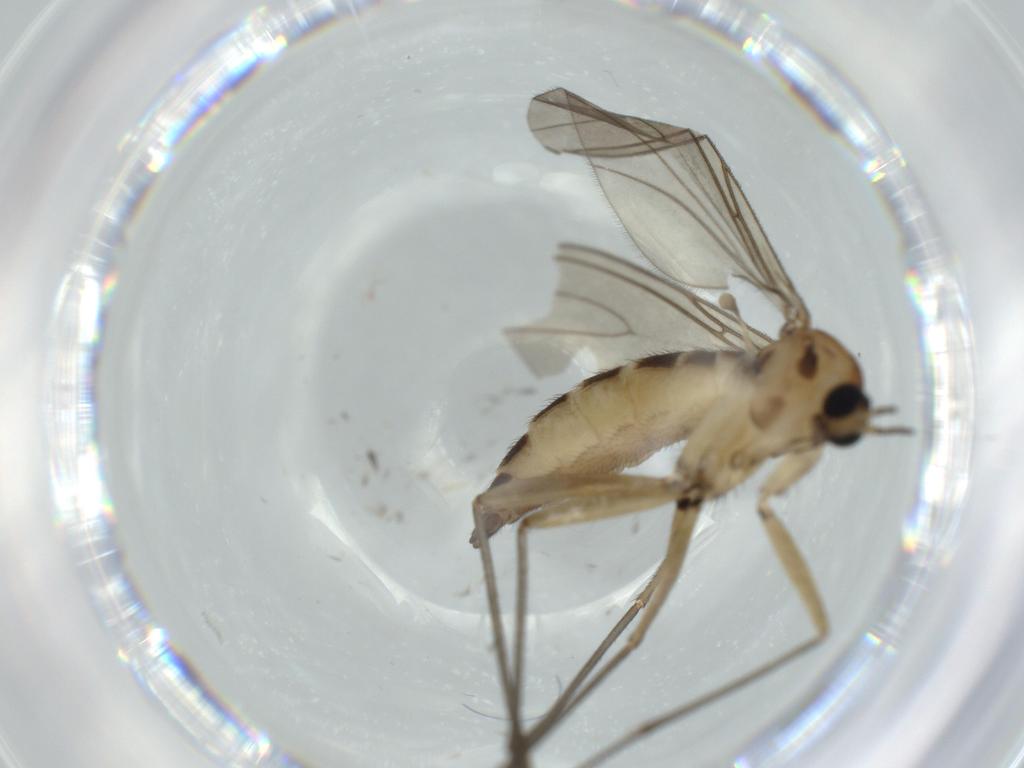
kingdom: Animalia
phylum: Arthropoda
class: Insecta
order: Diptera
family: Sciaridae
